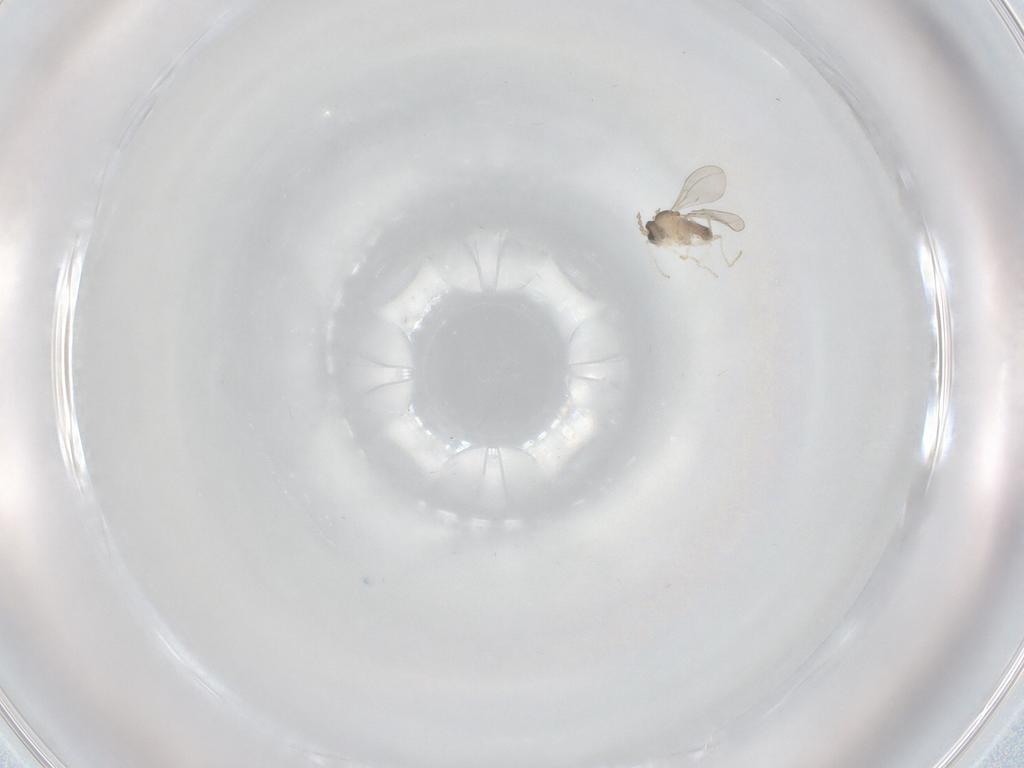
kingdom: Animalia
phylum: Arthropoda
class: Insecta
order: Diptera
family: Cecidomyiidae
